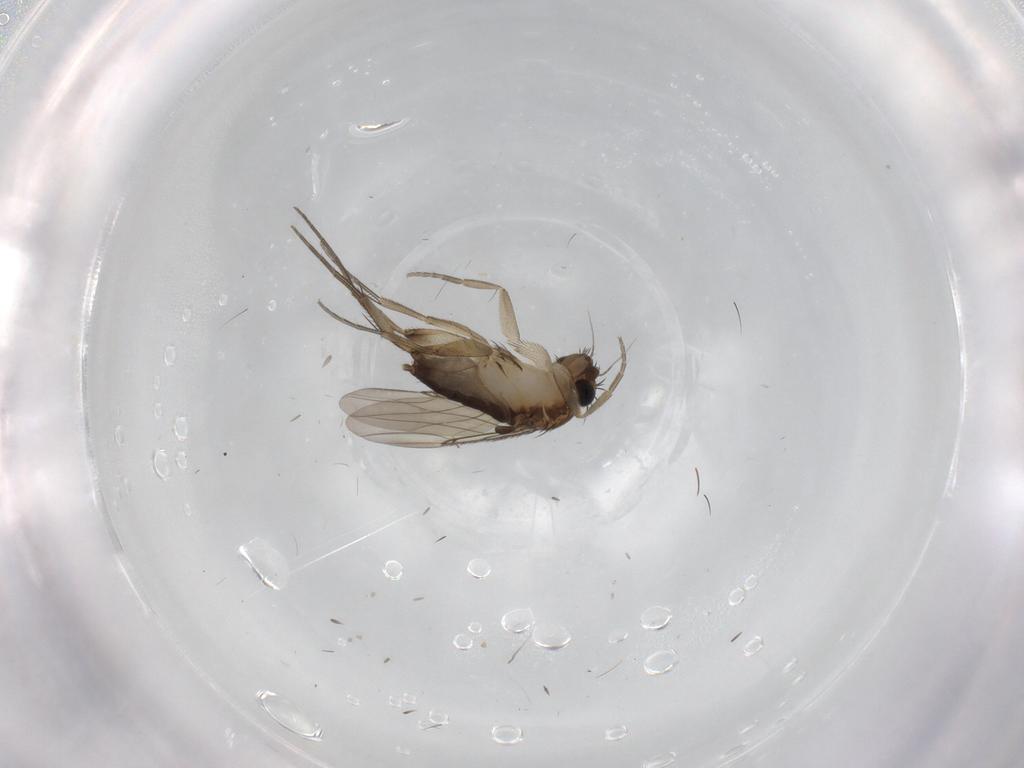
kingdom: Animalia
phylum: Arthropoda
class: Insecta
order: Diptera
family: Phoridae
